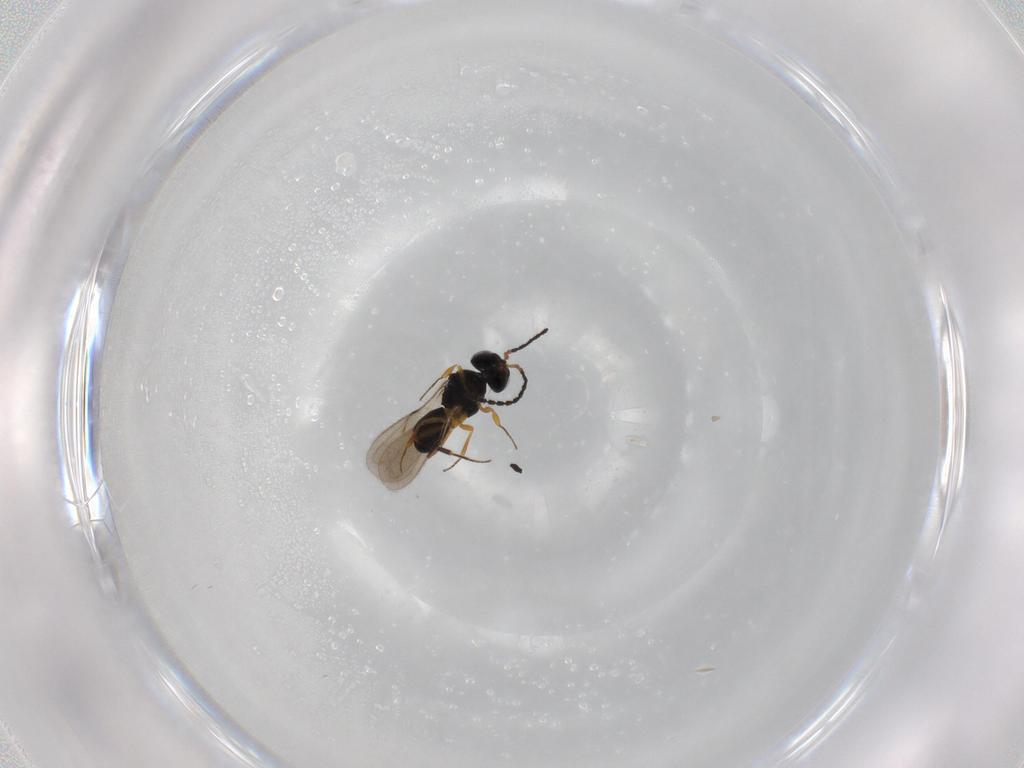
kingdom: Animalia
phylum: Arthropoda
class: Insecta
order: Hymenoptera
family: Scelionidae
